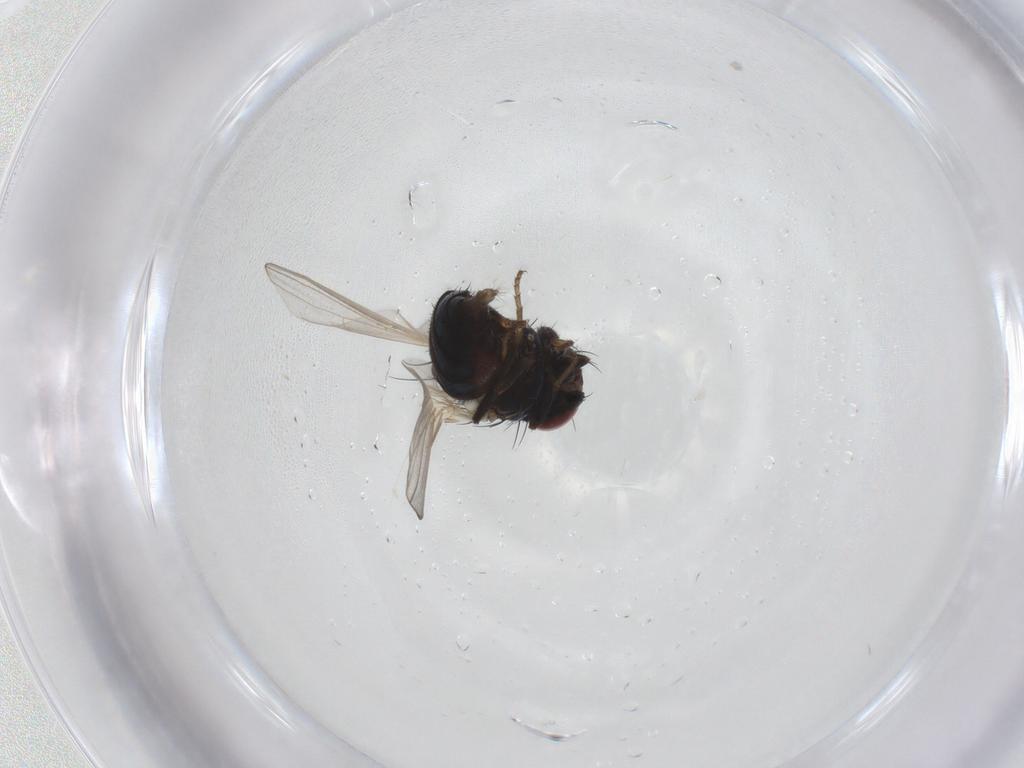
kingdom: Animalia
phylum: Arthropoda
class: Insecta
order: Diptera
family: Carnidae
